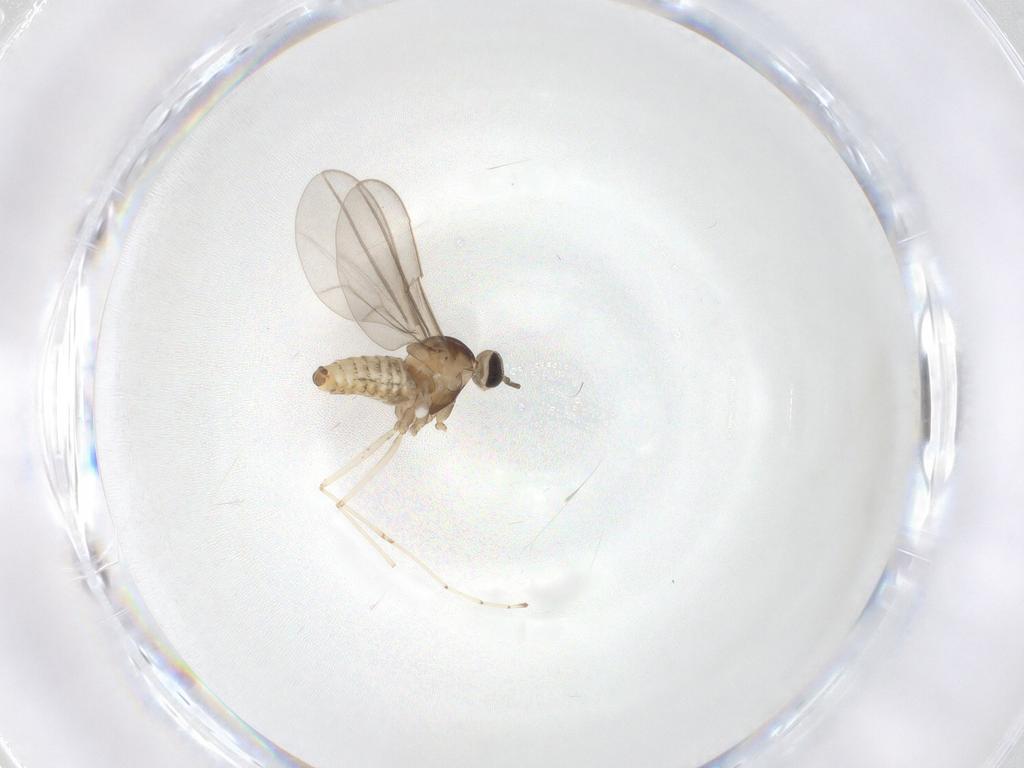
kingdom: Animalia
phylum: Arthropoda
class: Insecta
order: Diptera
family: Cecidomyiidae
